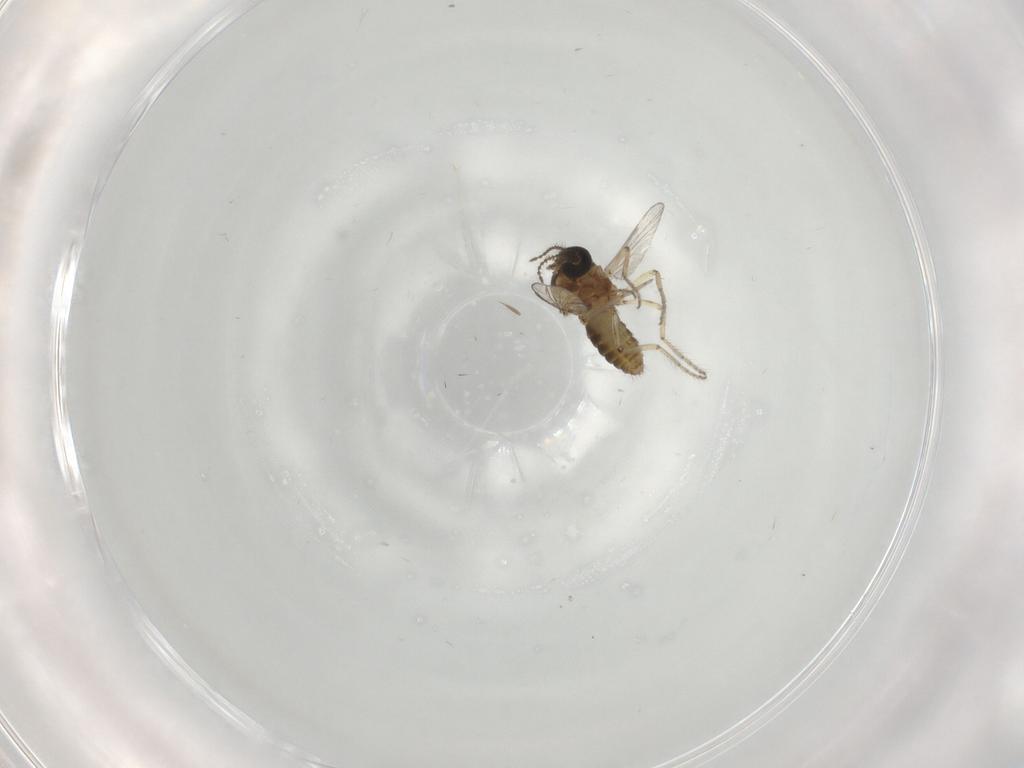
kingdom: Animalia
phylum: Arthropoda
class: Insecta
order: Diptera
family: Ceratopogonidae
